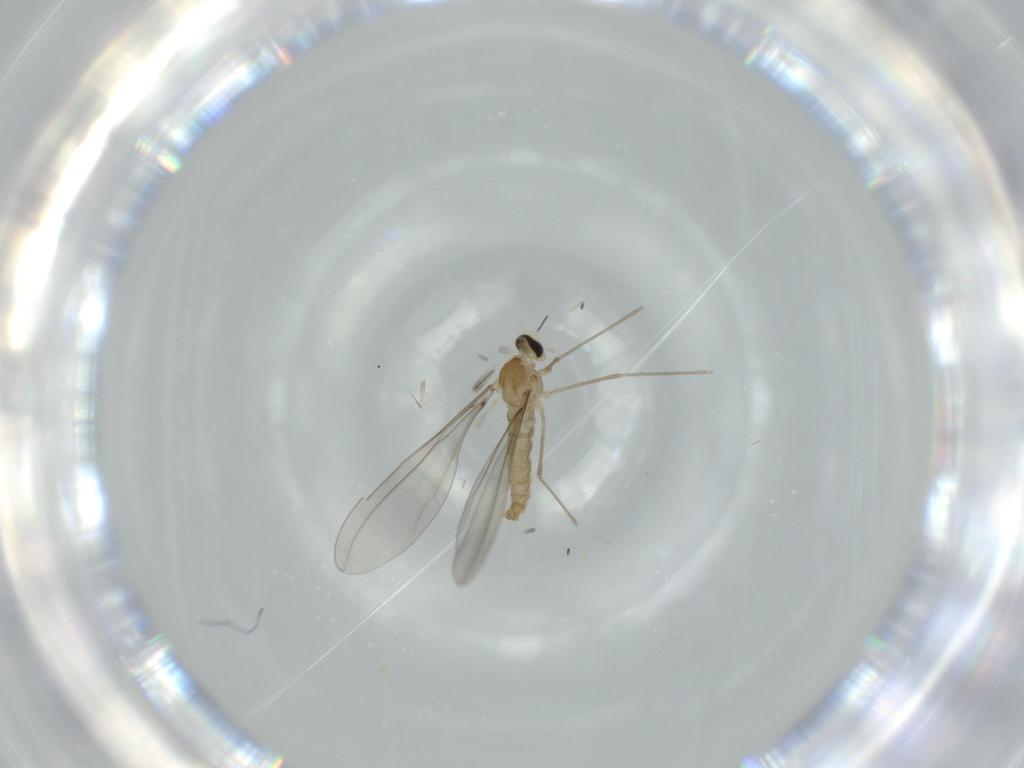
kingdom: Animalia
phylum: Arthropoda
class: Insecta
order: Diptera
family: Cecidomyiidae
